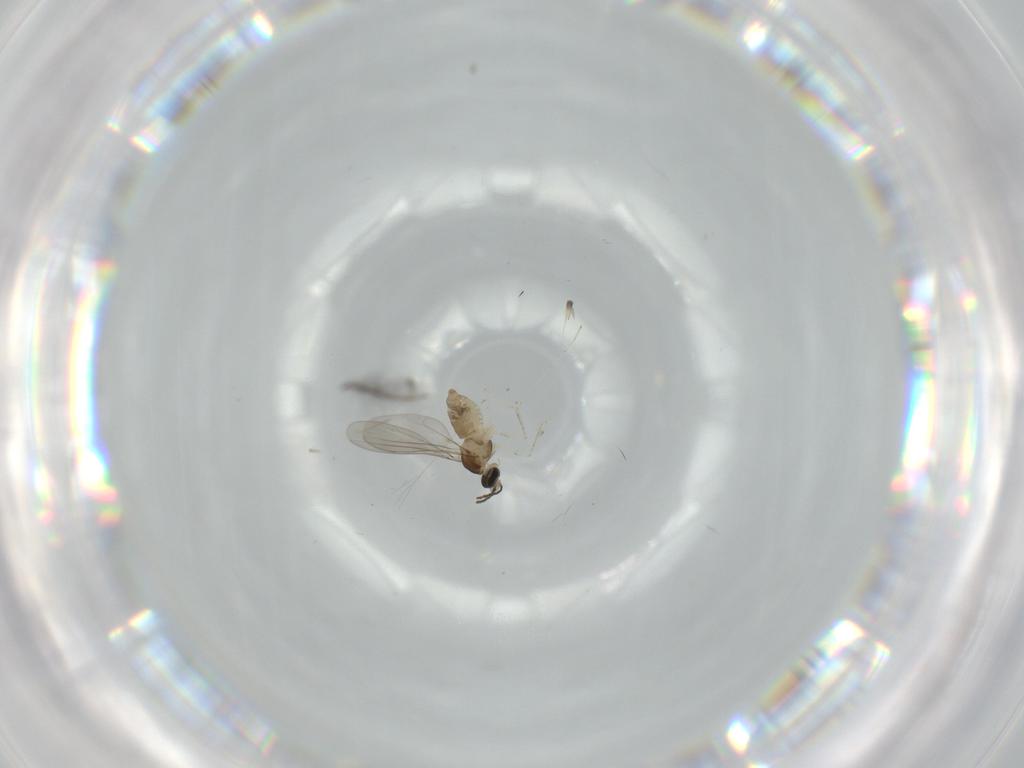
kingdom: Animalia
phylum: Arthropoda
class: Insecta
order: Diptera
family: Cecidomyiidae
